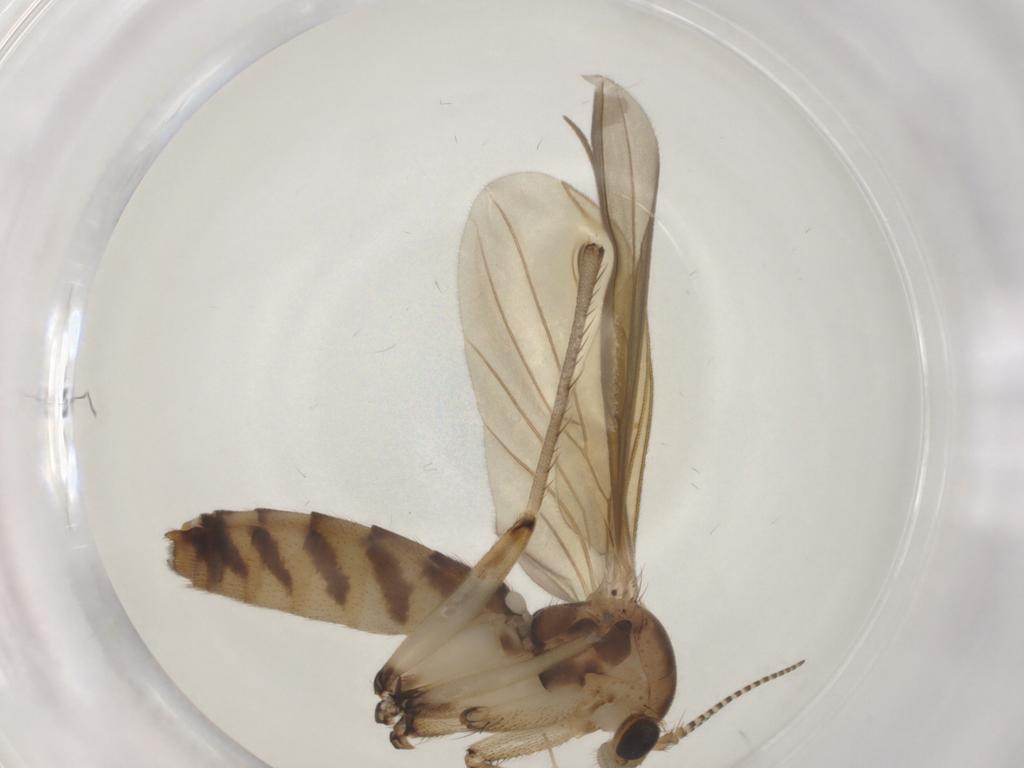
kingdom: Animalia
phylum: Arthropoda
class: Insecta
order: Diptera
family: Mycetophilidae
